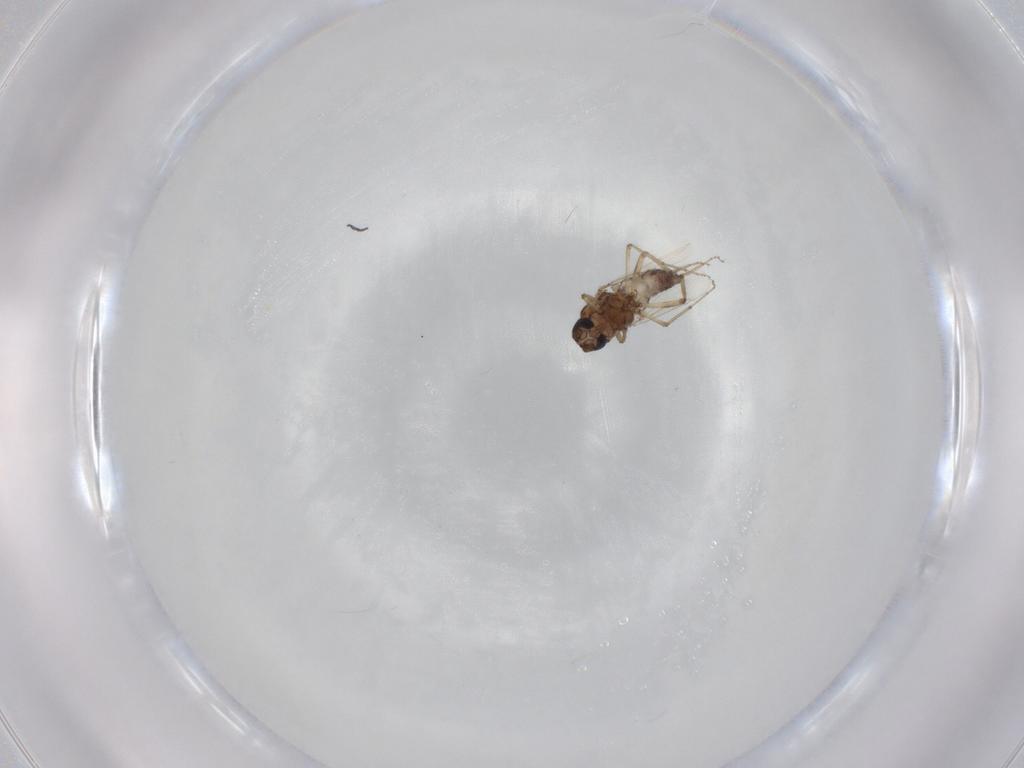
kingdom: Animalia
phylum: Arthropoda
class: Insecta
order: Diptera
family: Ceratopogonidae
